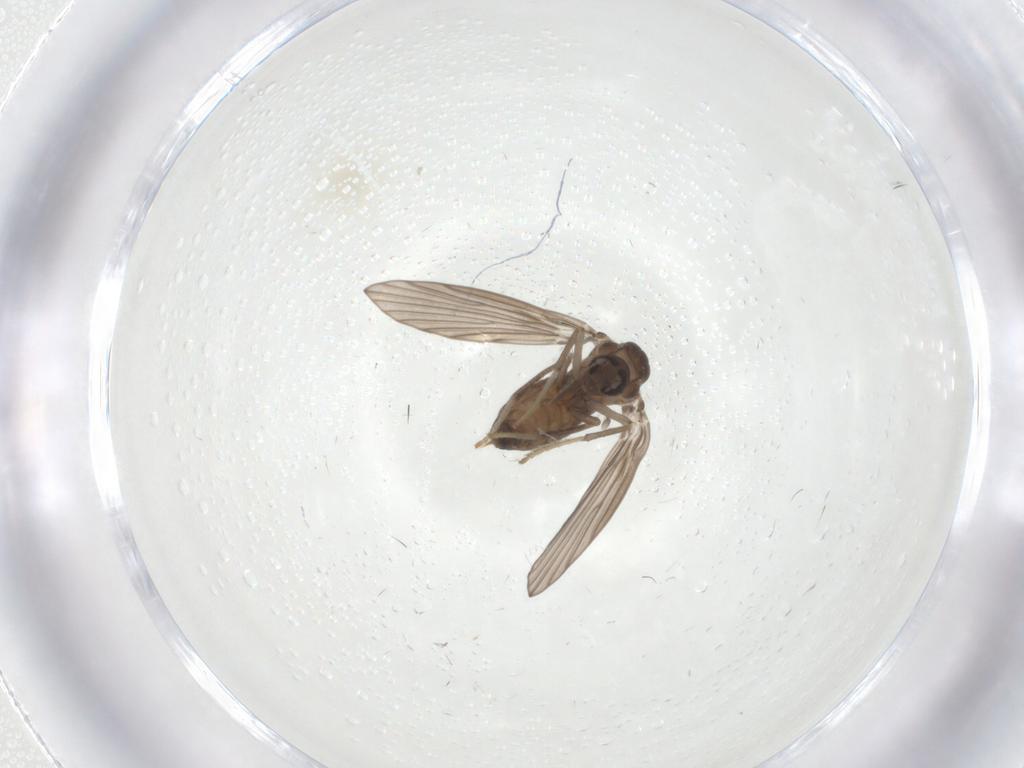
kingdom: Animalia
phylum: Arthropoda
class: Insecta
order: Diptera
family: Psychodidae
